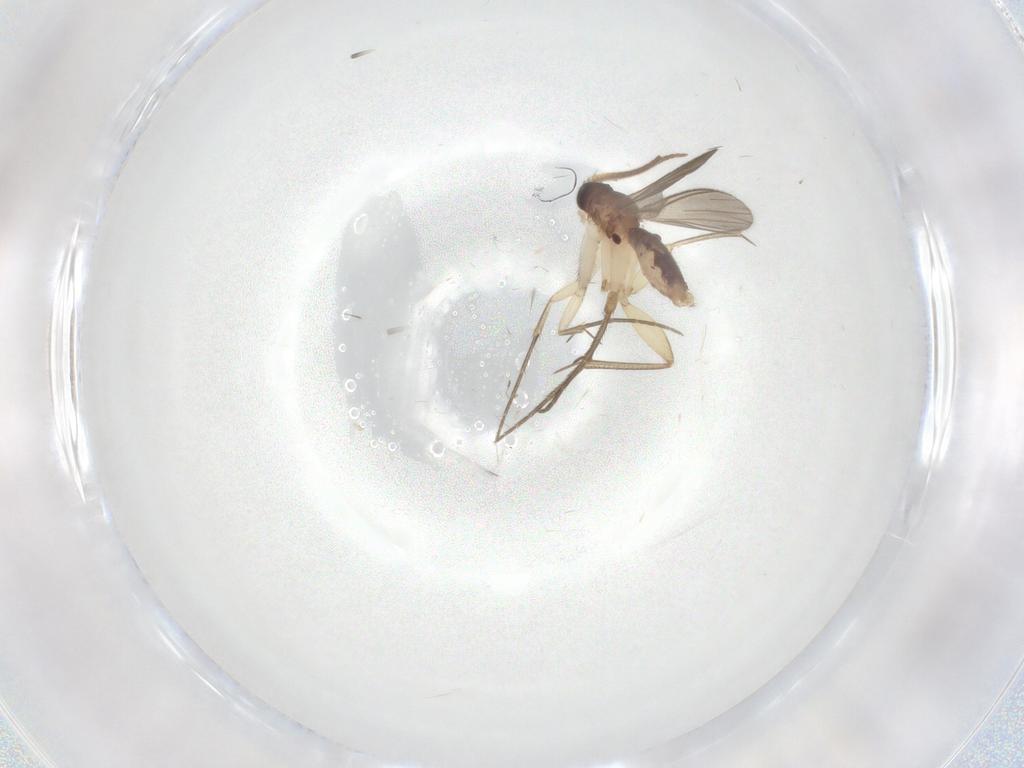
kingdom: Animalia
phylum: Arthropoda
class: Insecta
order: Diptera
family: Mycetophilidae
